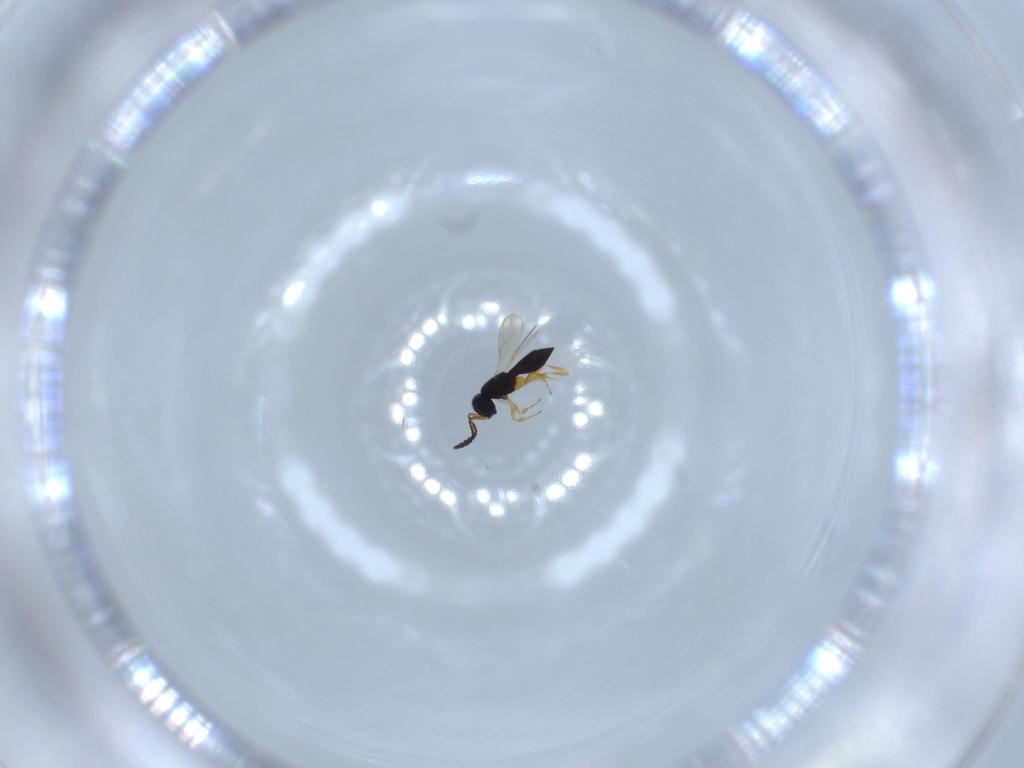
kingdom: Animalia
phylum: Arthropoda
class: Insecta
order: Hymenoptera
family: Scelionidae
